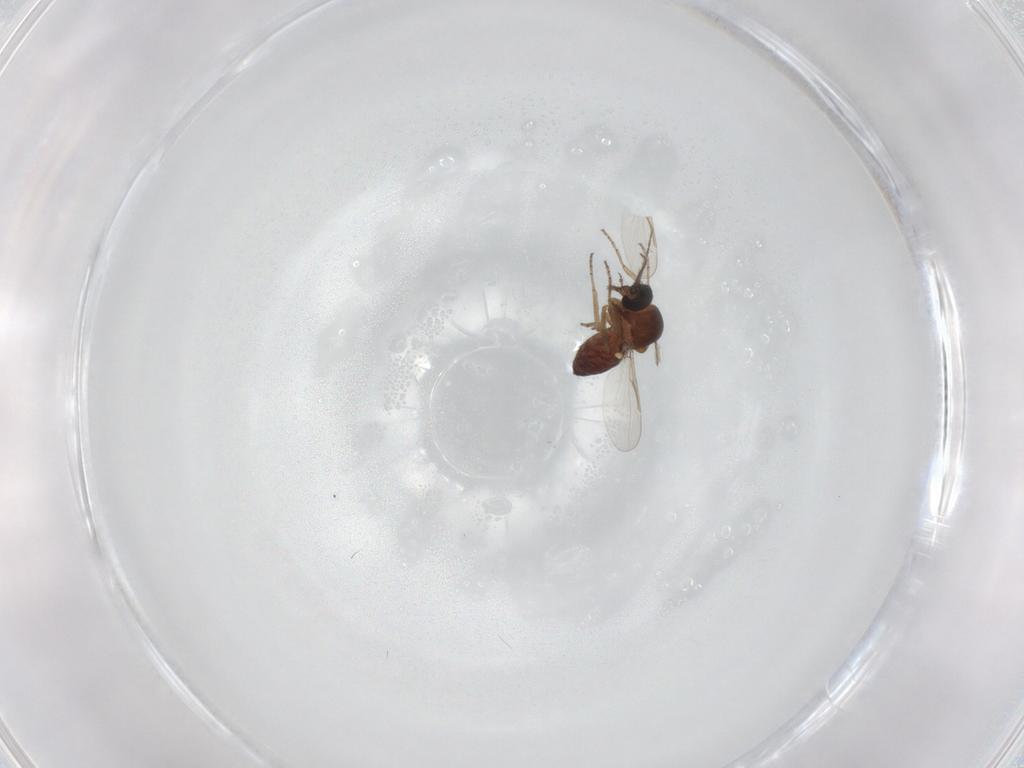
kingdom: Animalia
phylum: Arthropoda
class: Insecta
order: Diptera
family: Ceratopogonidae
